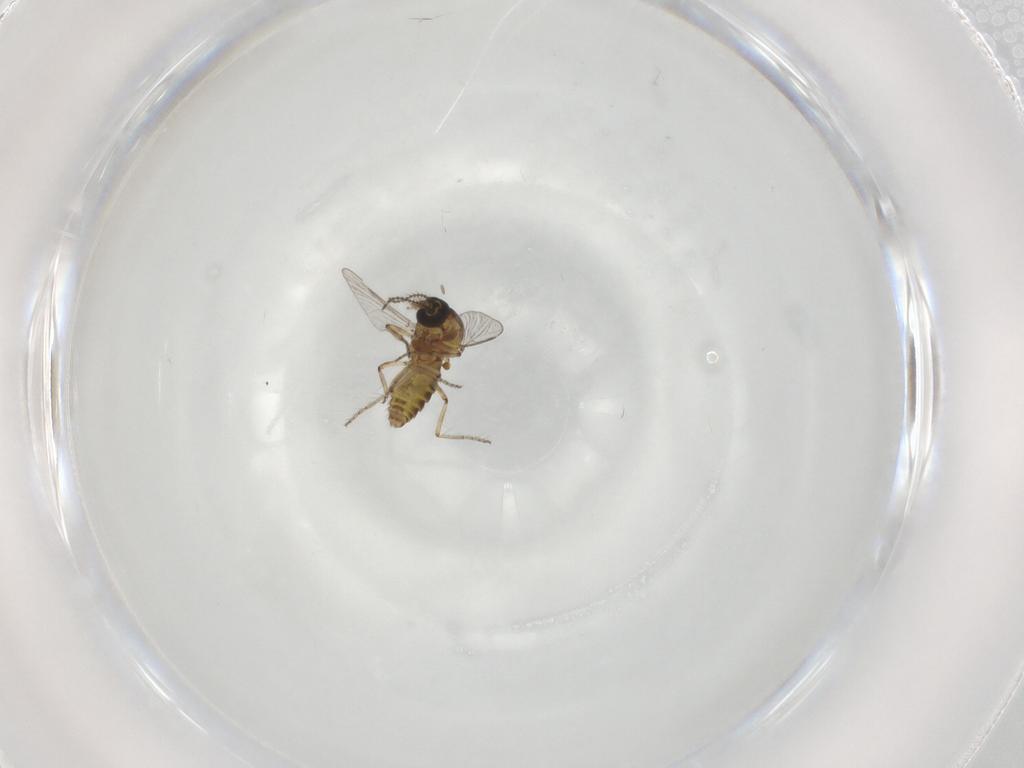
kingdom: Animalia
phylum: Arthropoda
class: Insecta
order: Diptera
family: Ceratopogonidae
